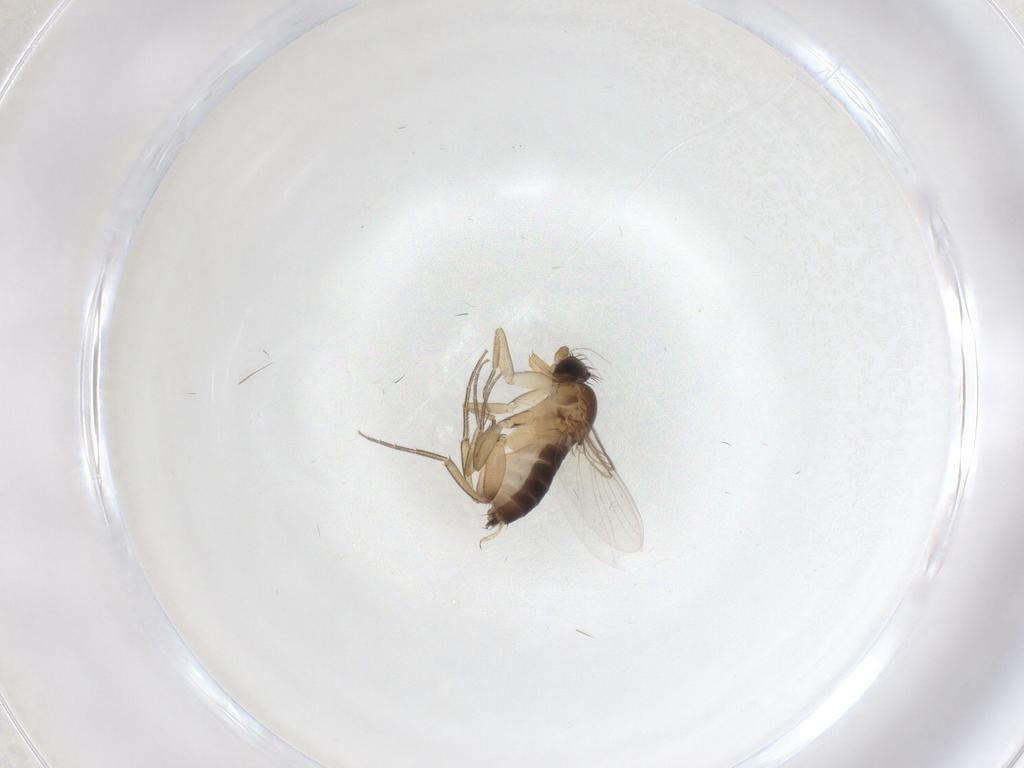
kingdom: Animalia
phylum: Arthropoda
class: Insecta
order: Diptera
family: Phoridae
